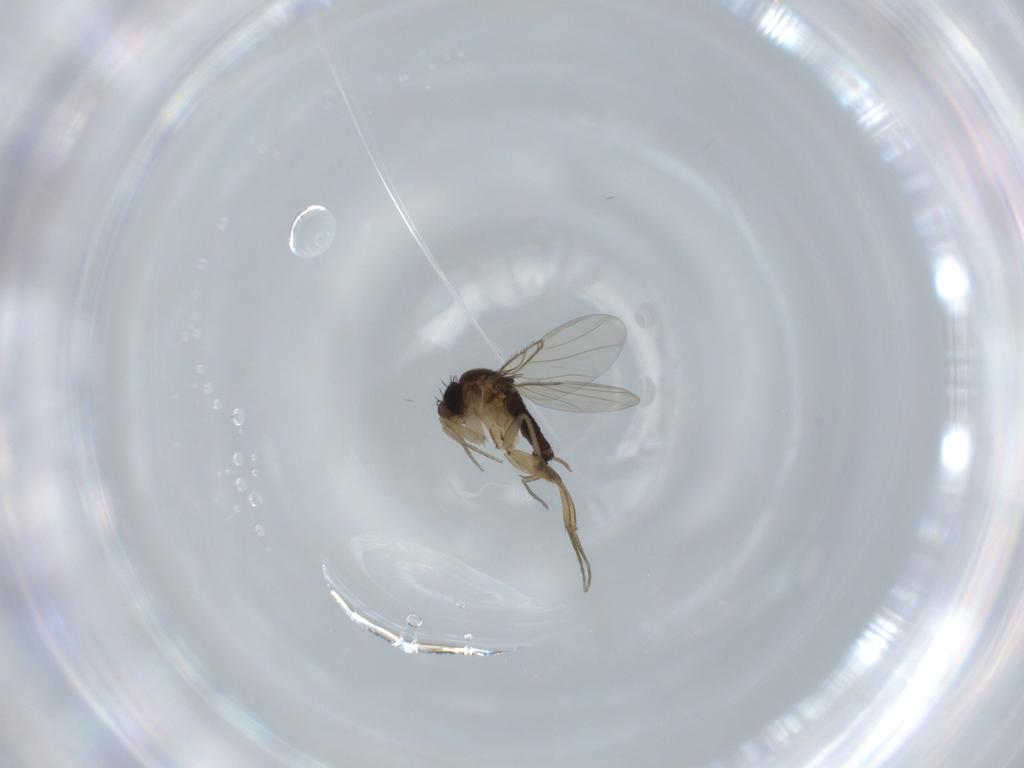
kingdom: Animalia
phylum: Arthropoda
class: Insecta
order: Diptera
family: Phoridae
